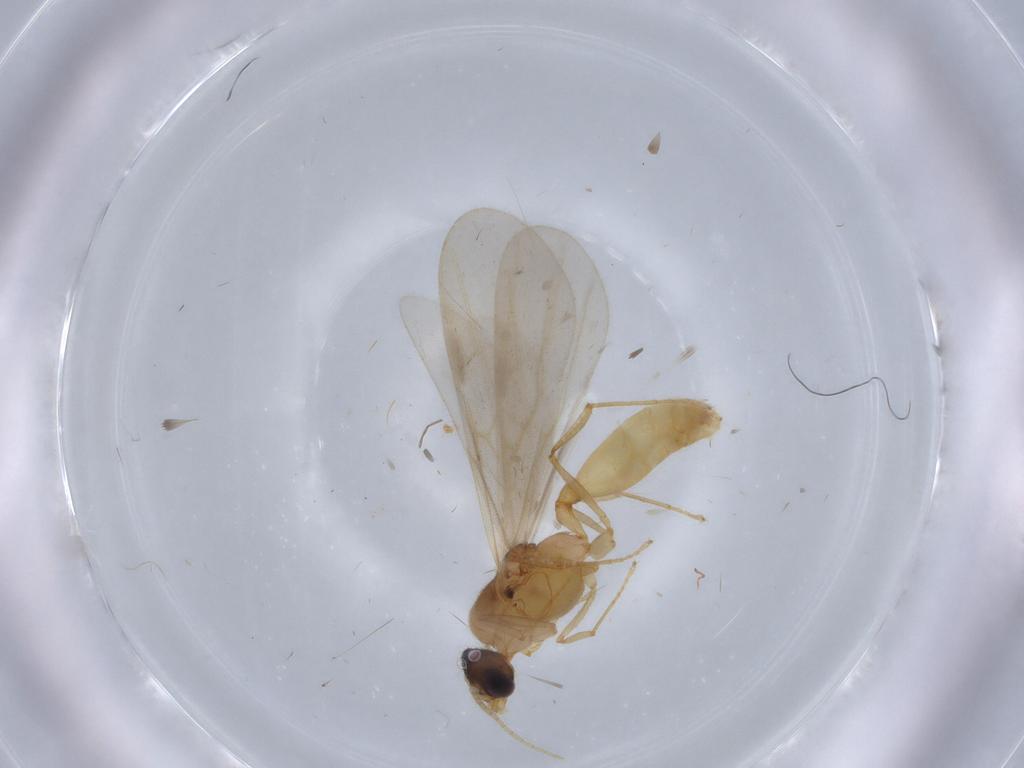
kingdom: Animalia
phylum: Arthropoda
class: Insecta
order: Hymenoptera
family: Formicidae
